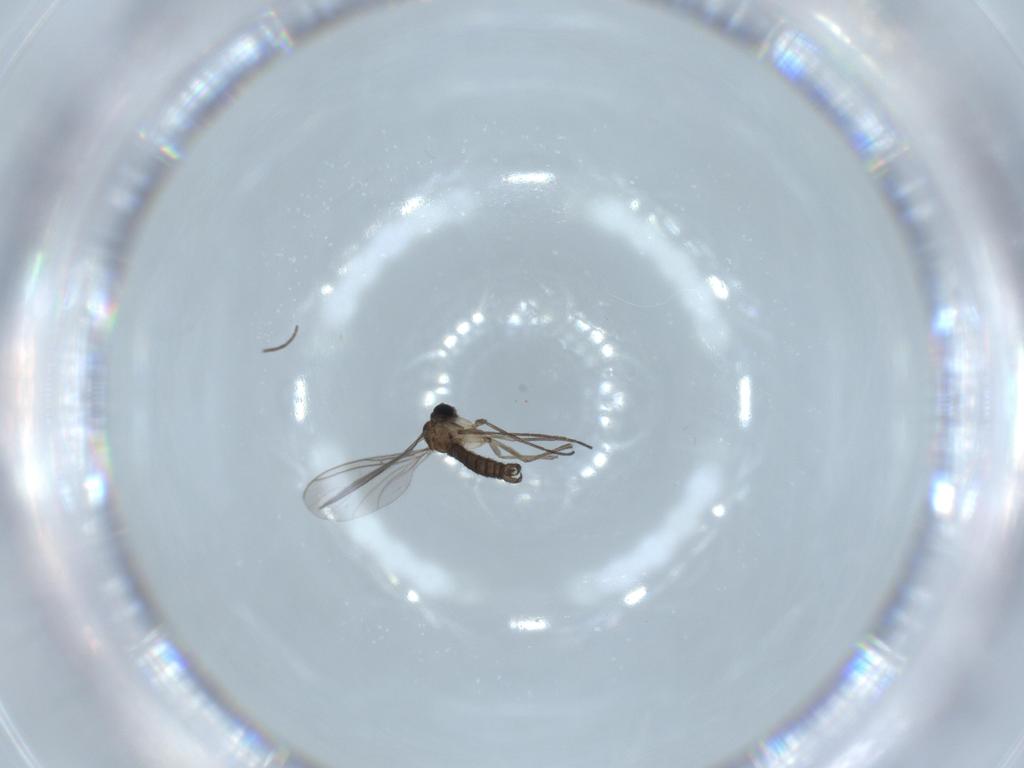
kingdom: Animalia
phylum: Arthropoda
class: Insecta
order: Diptera
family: Sciaridae
